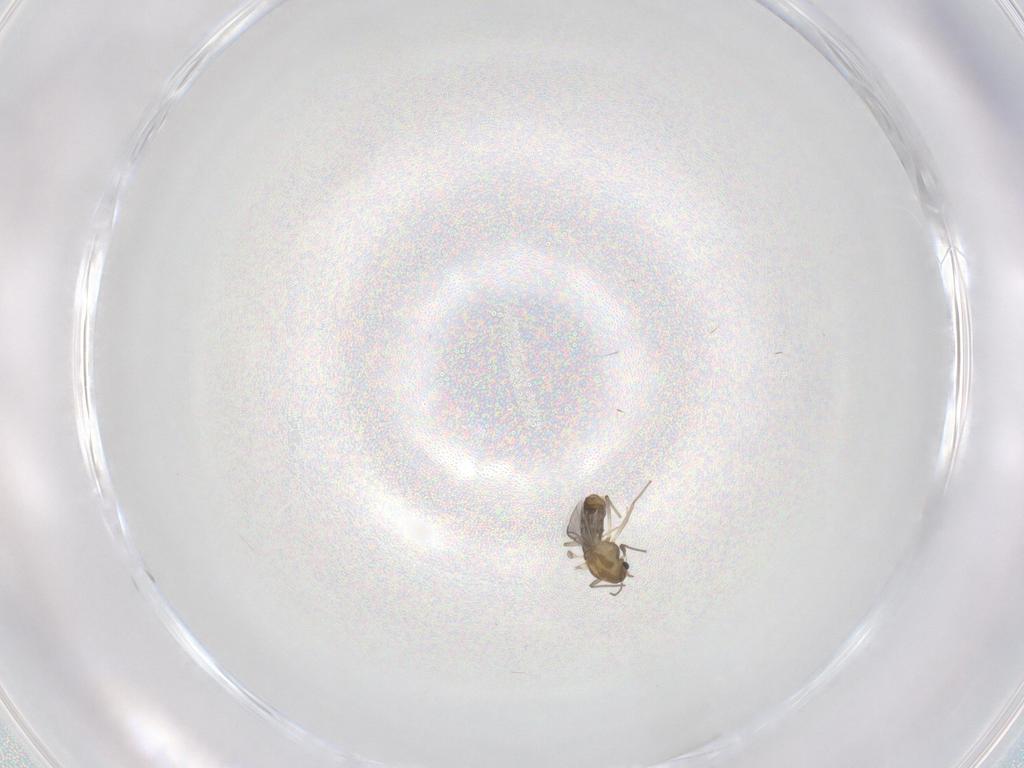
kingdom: Animalia
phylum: Arthropoda
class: Insecta
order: Diptera
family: Chironomidae
